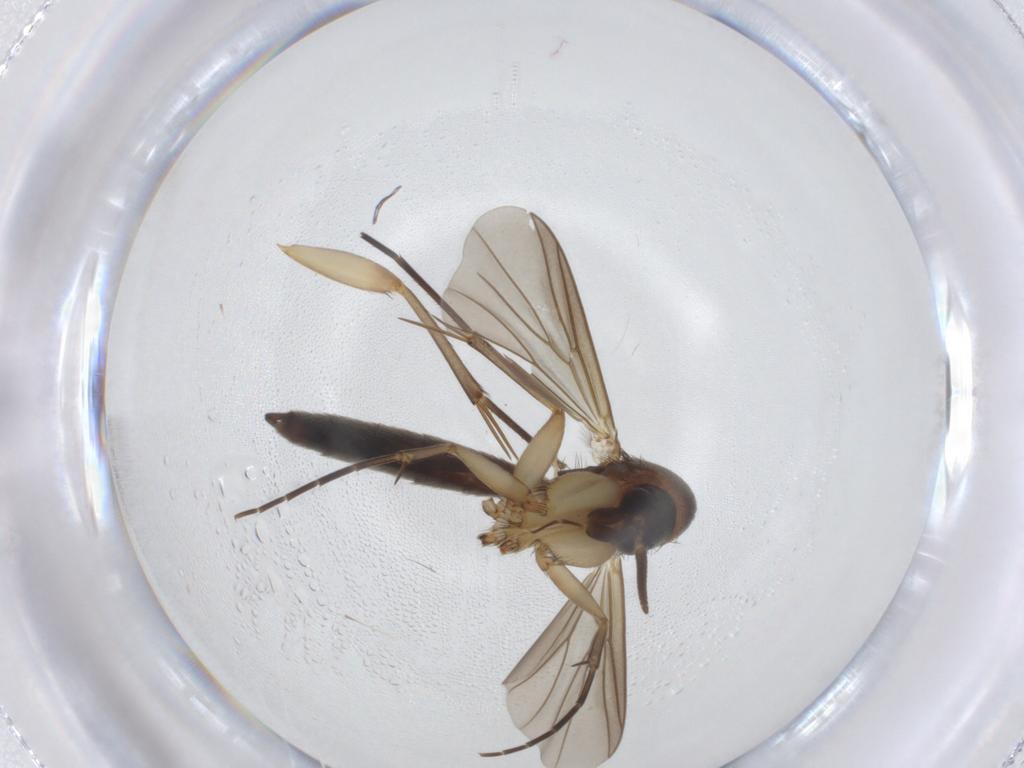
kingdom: Animalia
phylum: Arthropoda
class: Insecta
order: Diptera
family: Mycetophilidae
